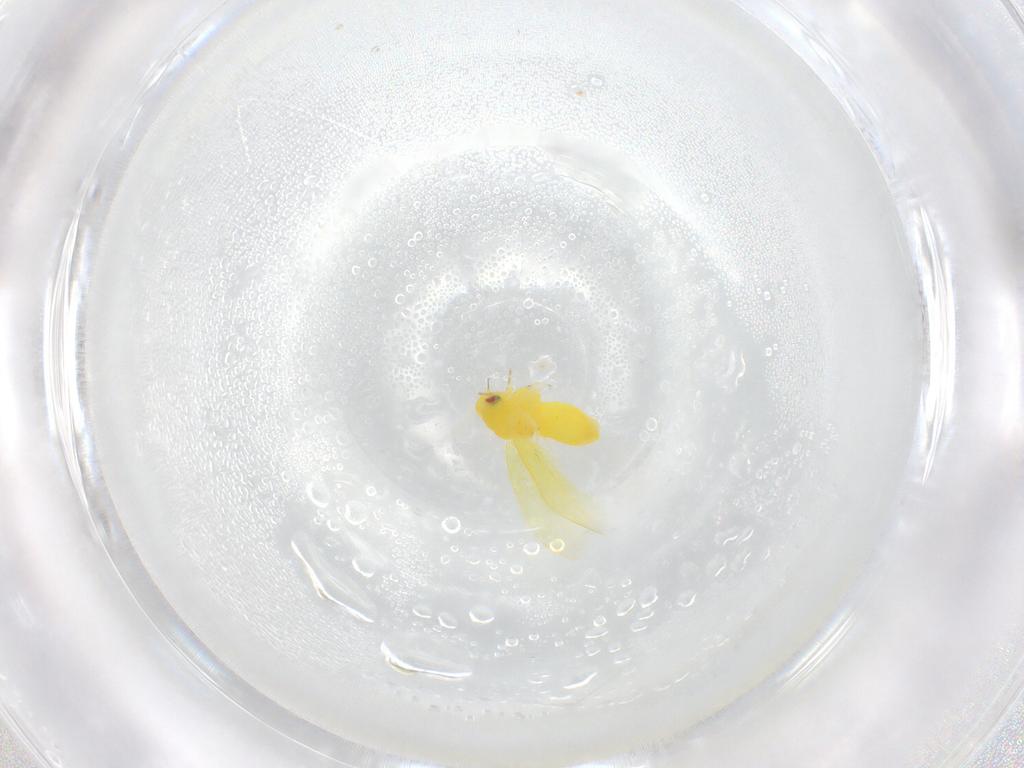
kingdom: Animalia
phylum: Arthropoda
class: Insecta
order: Hemiptera
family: Aleyrodidae
